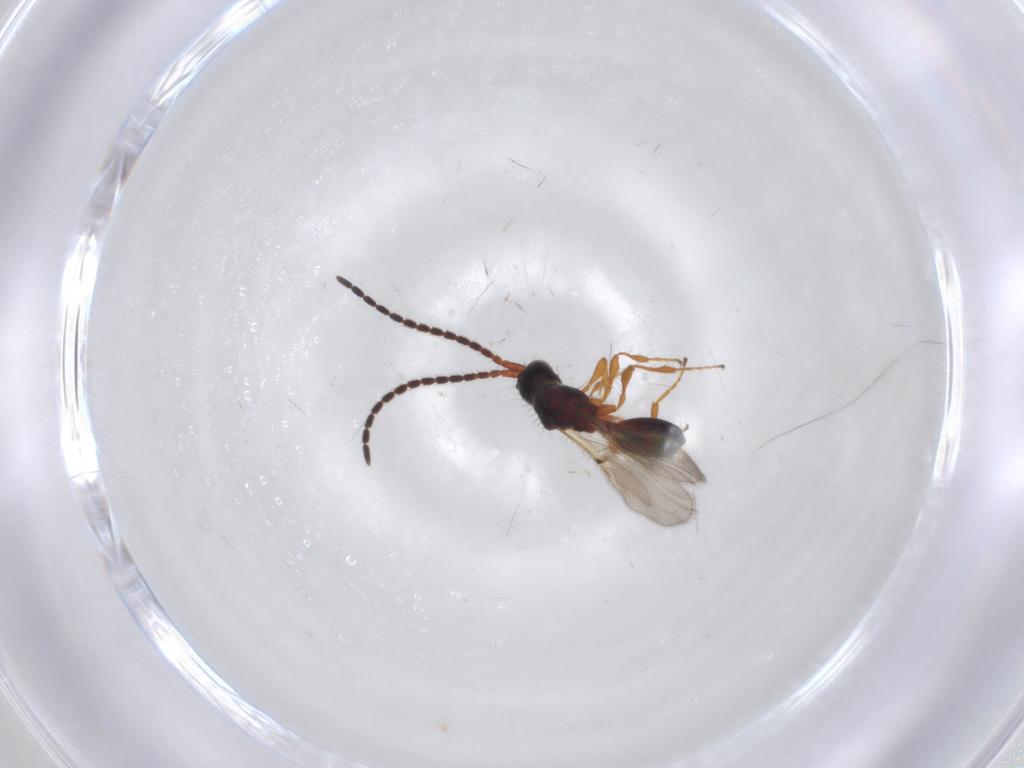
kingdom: Animalia
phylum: Arthropoda
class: Insecta
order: Hymenoptera
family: Diapriidae
